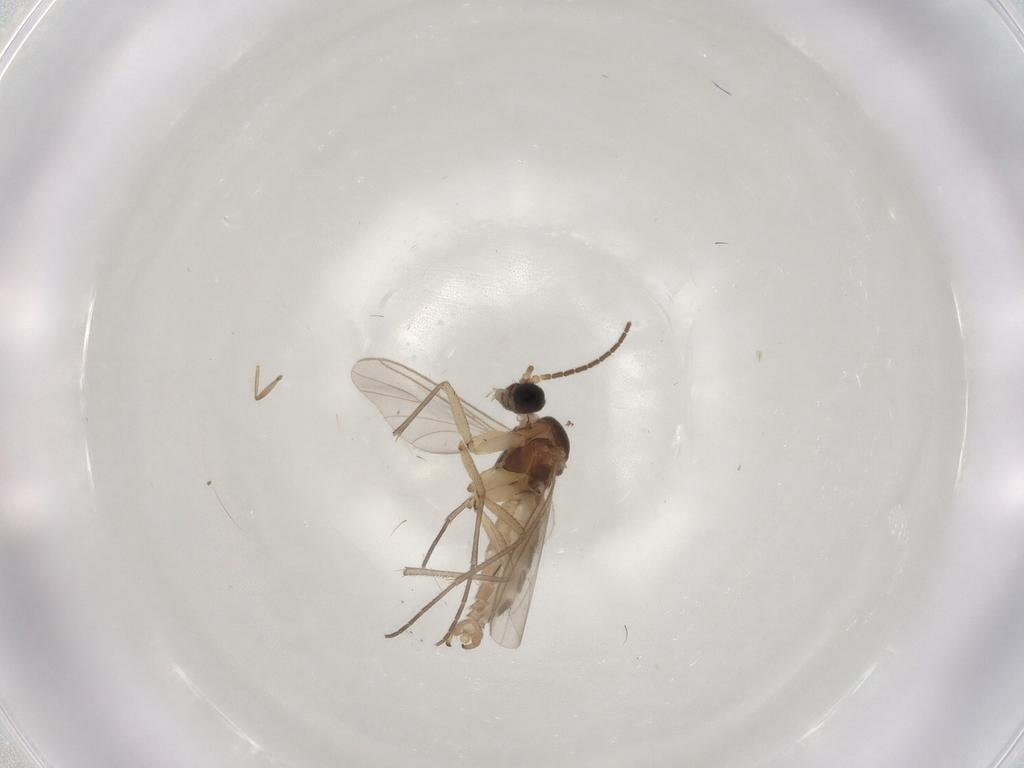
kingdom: Animalia
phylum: Arthropoda
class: Insecta
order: Diptera
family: Sciaridae
